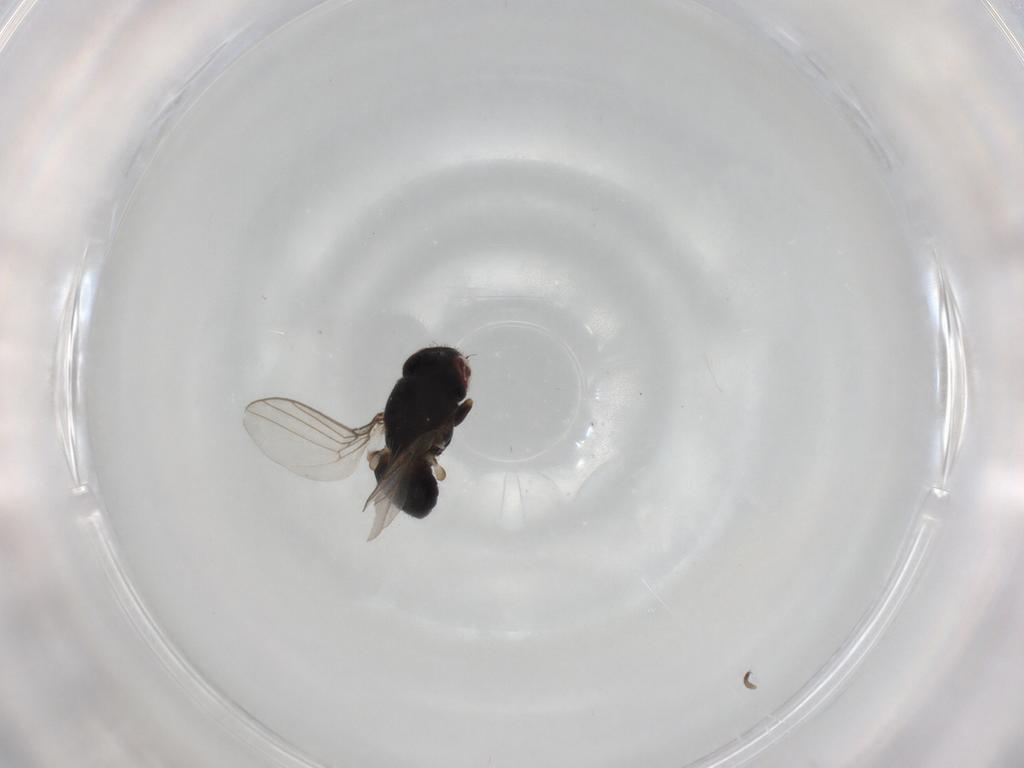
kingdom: Animalia
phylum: Arthropoda
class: Insecta
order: Diptera
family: Chloropidae
